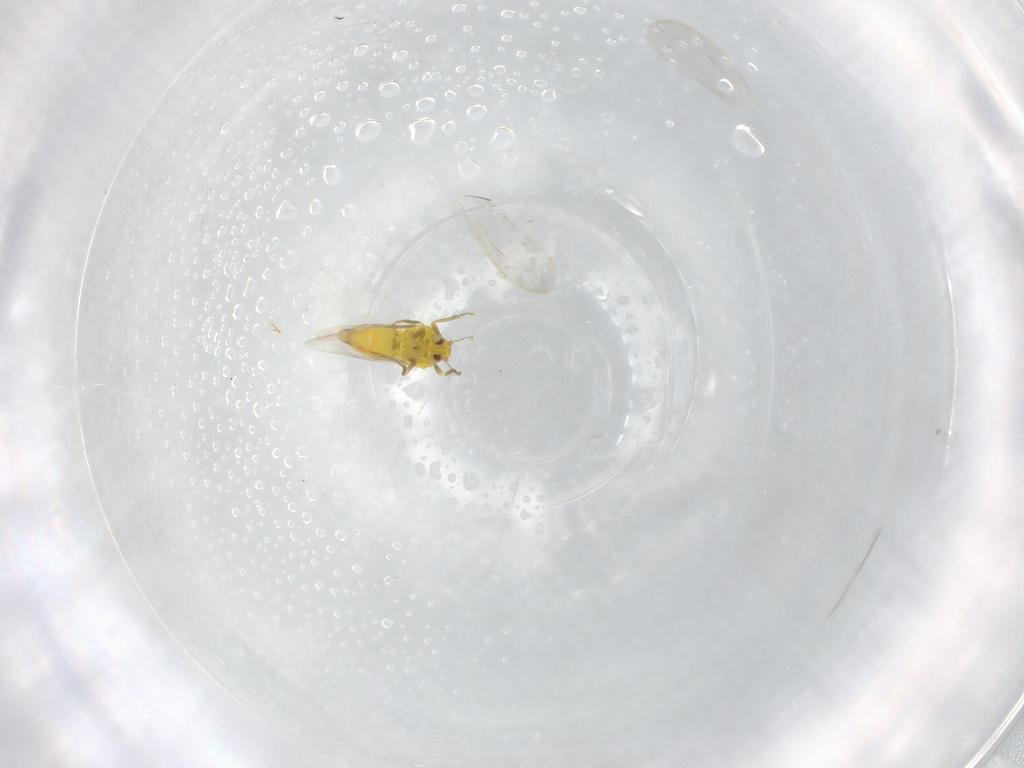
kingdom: Animalia
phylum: Arthropoda
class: Insecta
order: Hemiptera
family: Aleyrodidae
